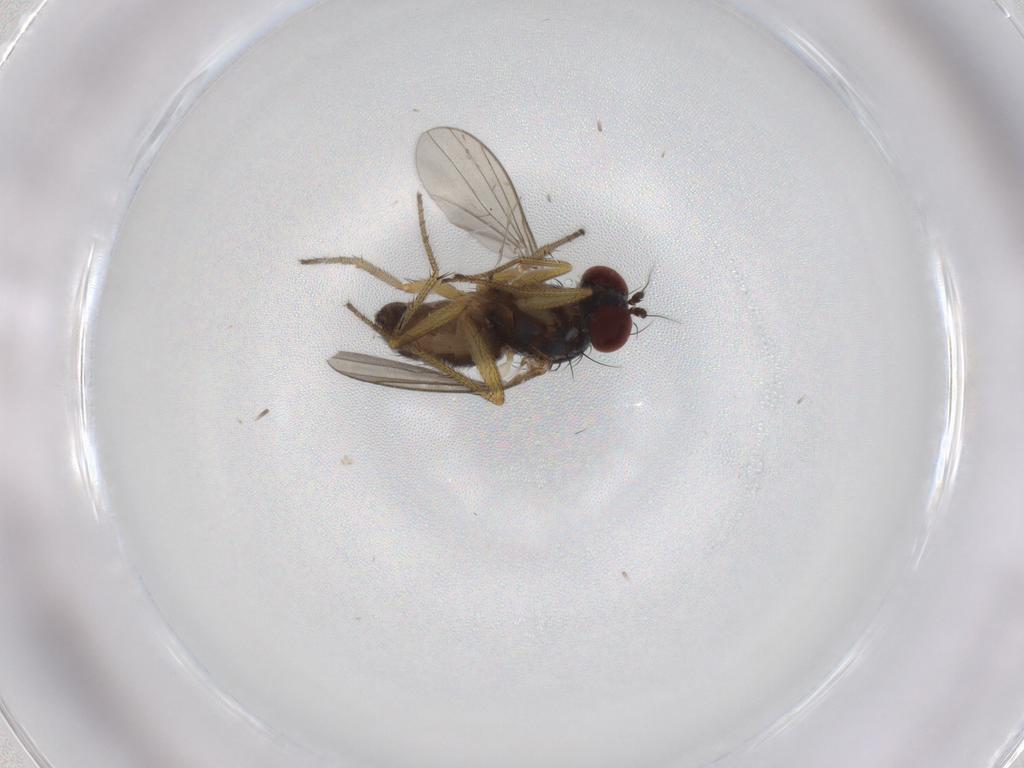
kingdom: Animalia
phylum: Arthropoda
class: Insecta
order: Diptera
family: Dolichopodidae
